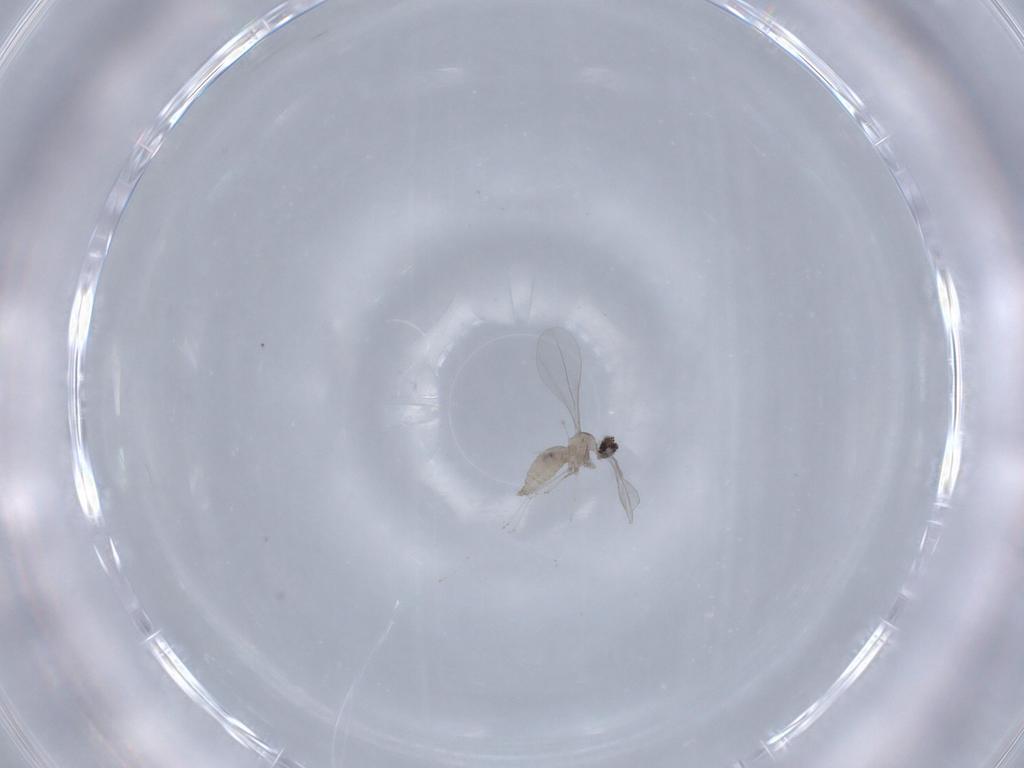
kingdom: Animalia
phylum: Arthropoda
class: Insecta
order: Diptera
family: Cecidomyiidae
